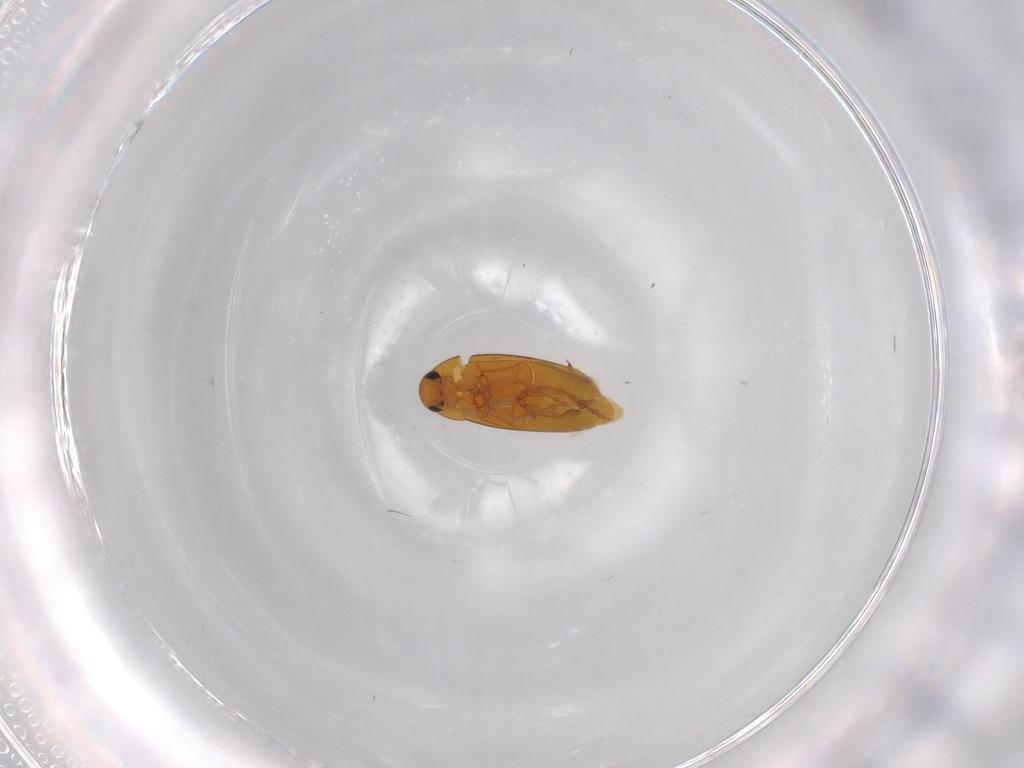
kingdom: Animalia
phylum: Arthropoda
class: Insecta
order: Coleoptera
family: Scraptiidae
